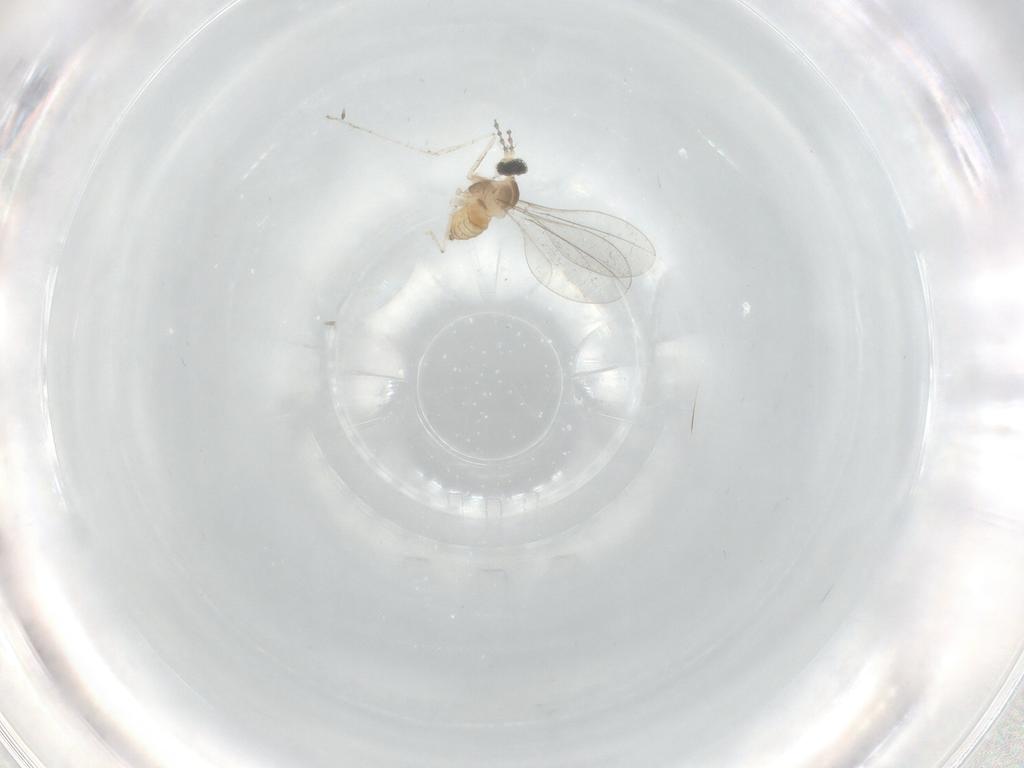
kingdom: Animalia
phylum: Arthropoda
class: Insecta
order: Diptera
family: Cecidomyiidae
